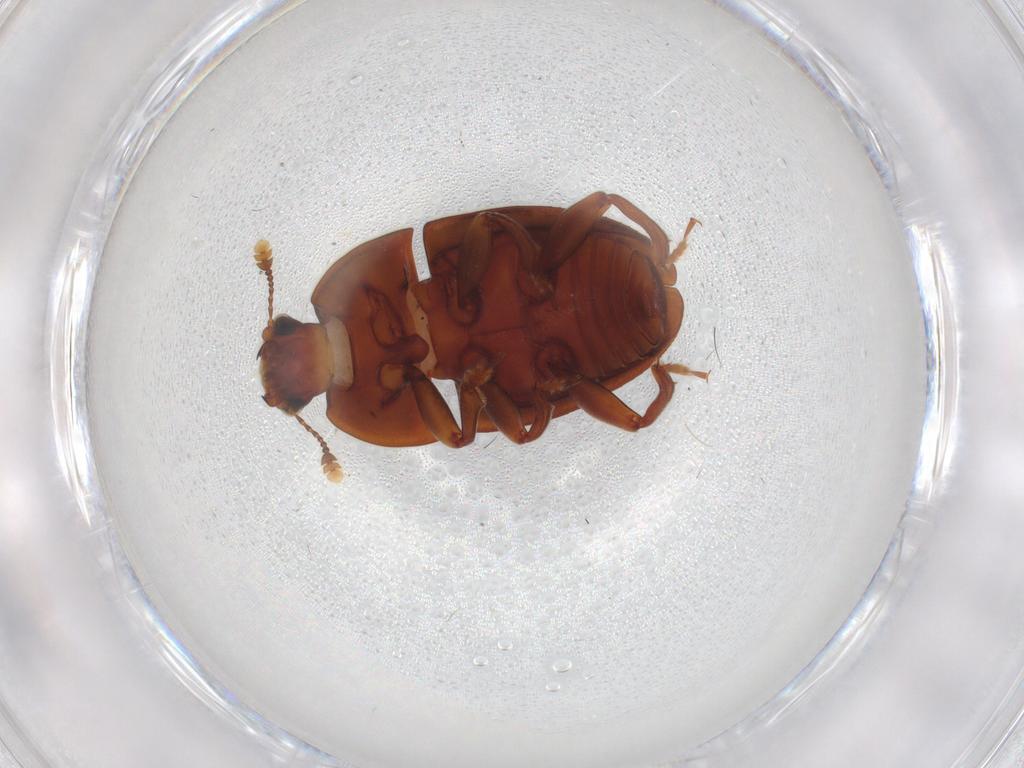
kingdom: Animalia
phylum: Arthropoda
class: Insecta
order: Coleoptera
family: Nitidulidae
